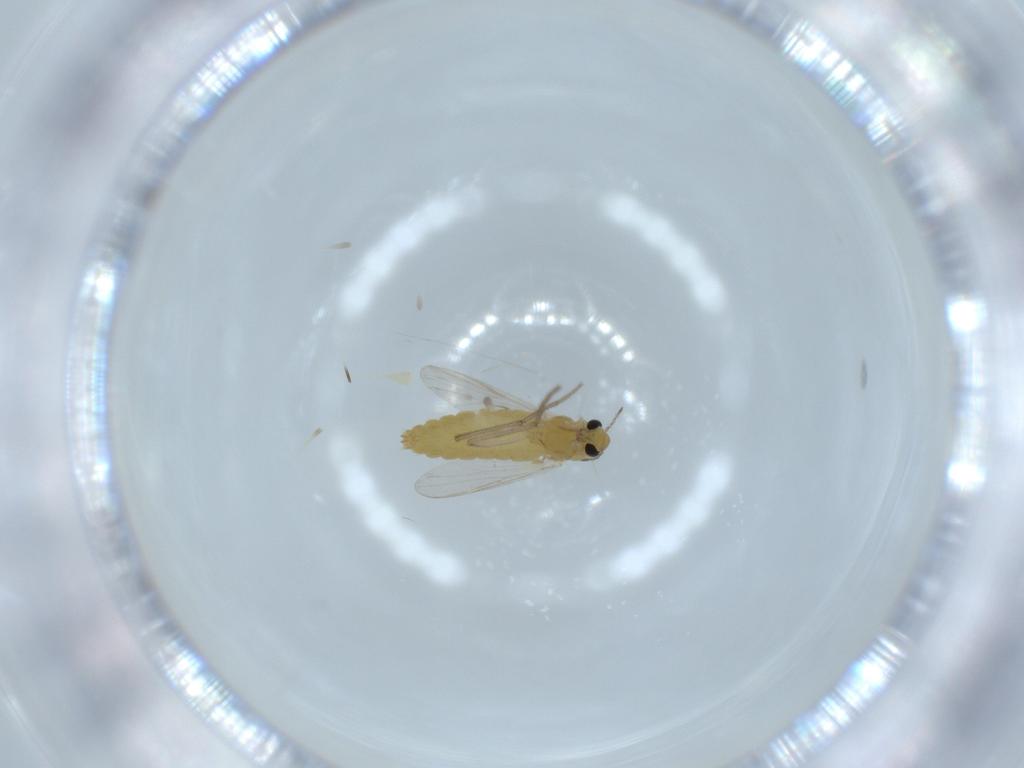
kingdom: Animalia
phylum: Arthropoda
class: Insecta
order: Diptera
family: Chironomidae
